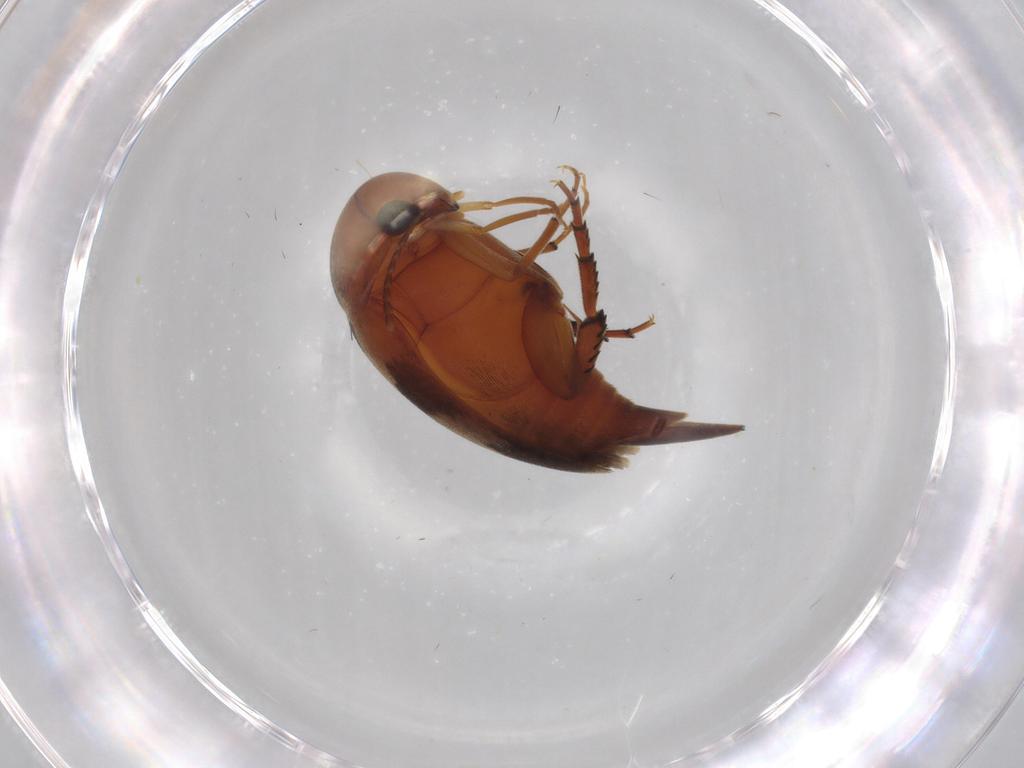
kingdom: Animalia
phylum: Arthropoda
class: Insecta
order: Coleoptera
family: Mordellidae
